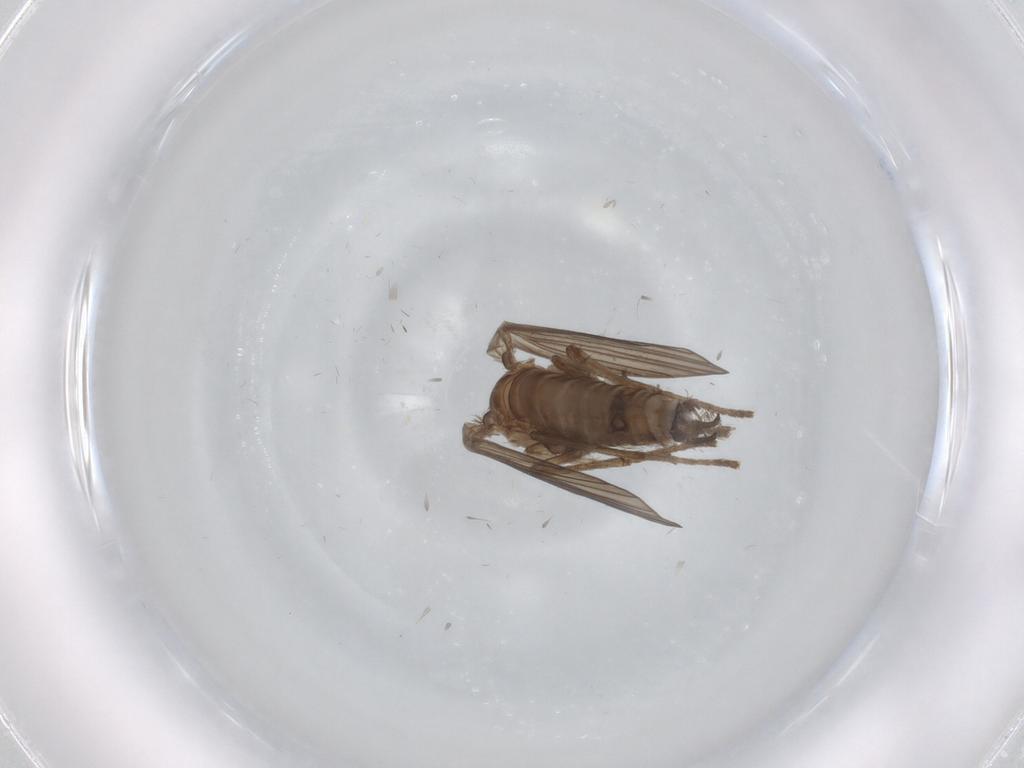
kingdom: Animalia
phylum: Arthropoda
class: Insecta
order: Diptera
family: Psychodidae
